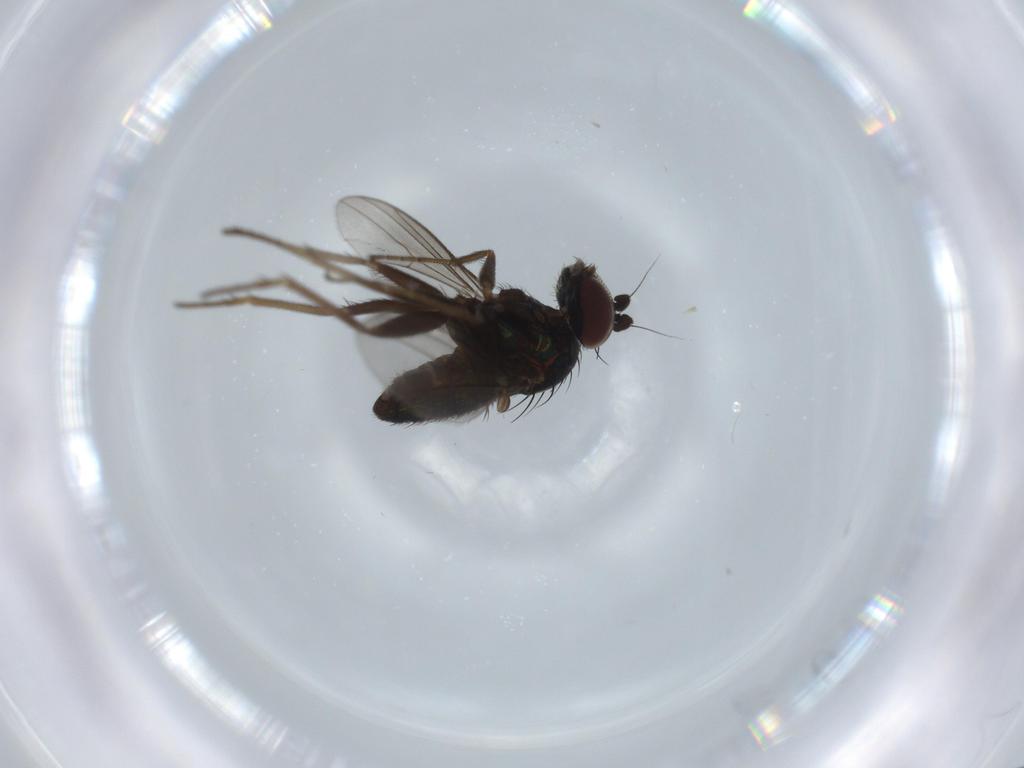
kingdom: Animalia
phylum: Arthropoda
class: Insecta
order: Diptera
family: Dolichopodidae
